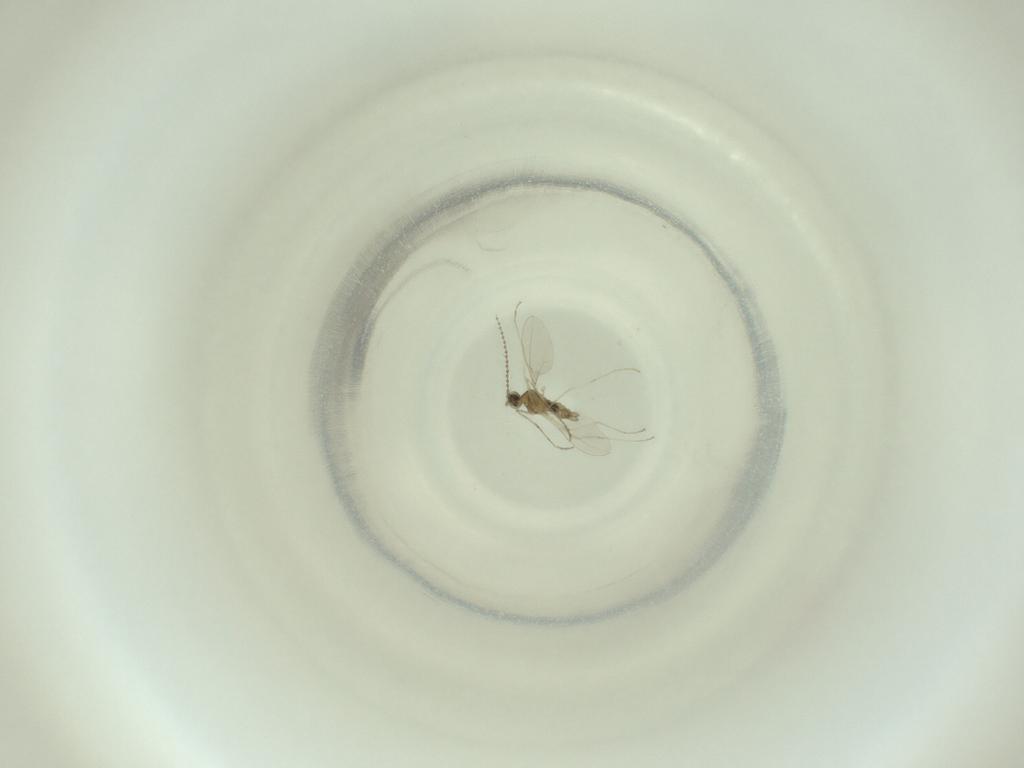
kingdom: Animalia
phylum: Arthropoda
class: Insecta
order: Diptera
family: Cecidomyiidae
